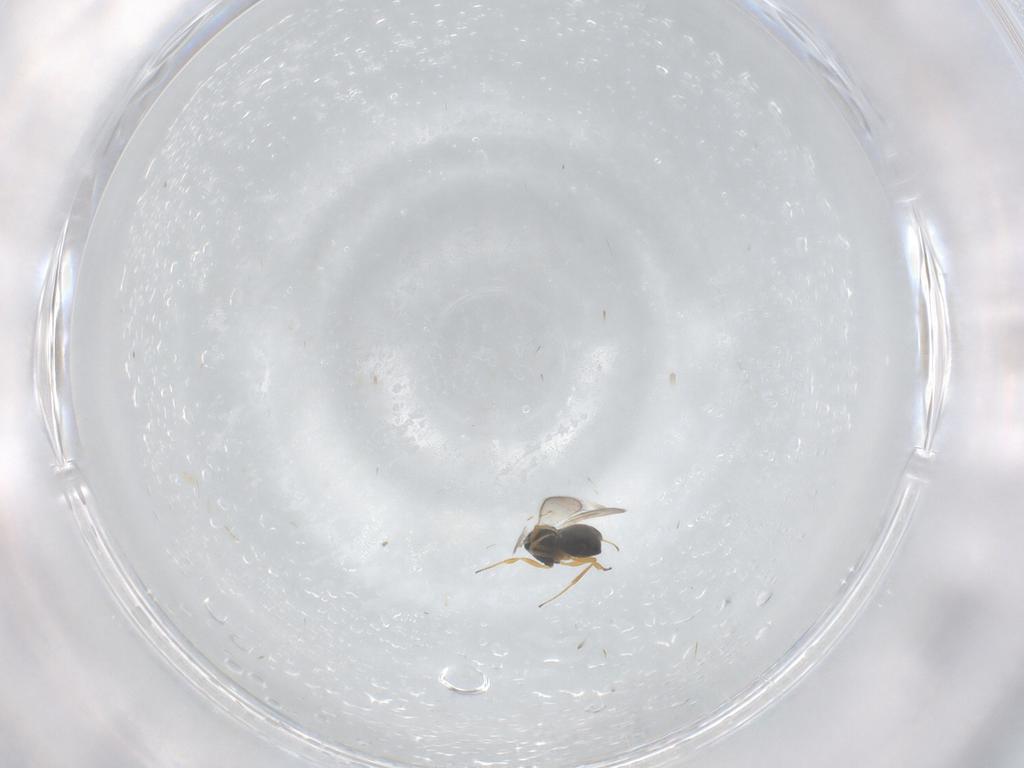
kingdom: Animalia
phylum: Arthropoda
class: Insecta
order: Hymenoptera
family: Scelionidae
